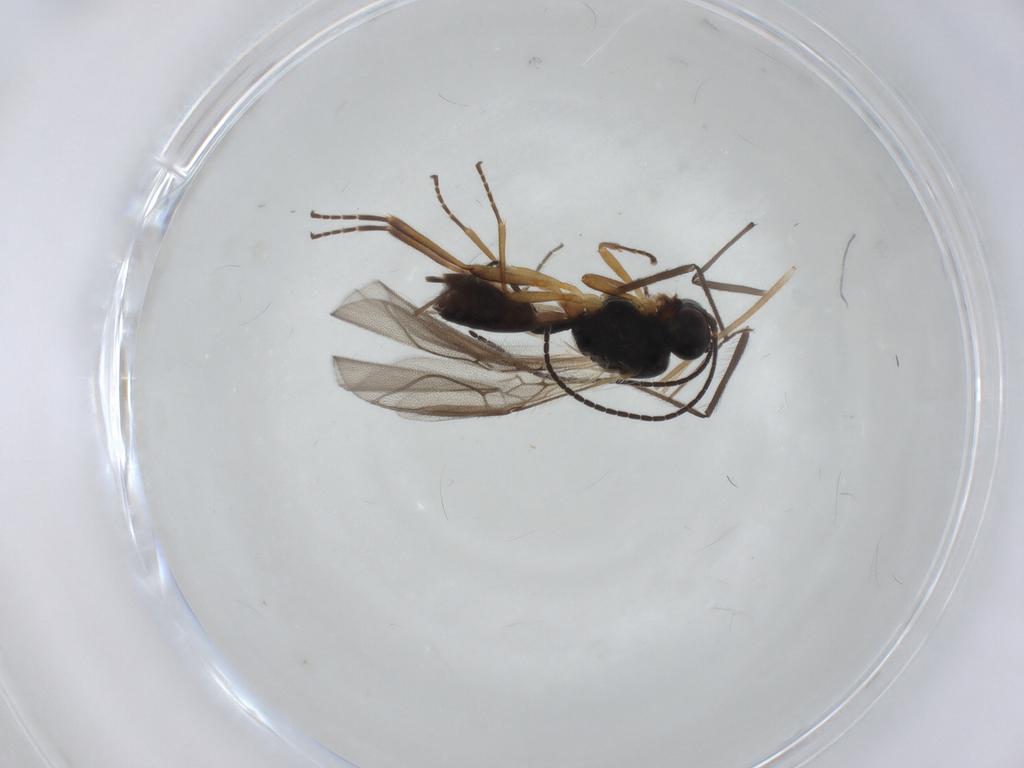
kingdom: Animalia
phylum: Arthropoda
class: Insecta
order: Hymenoptera
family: Braconidae
